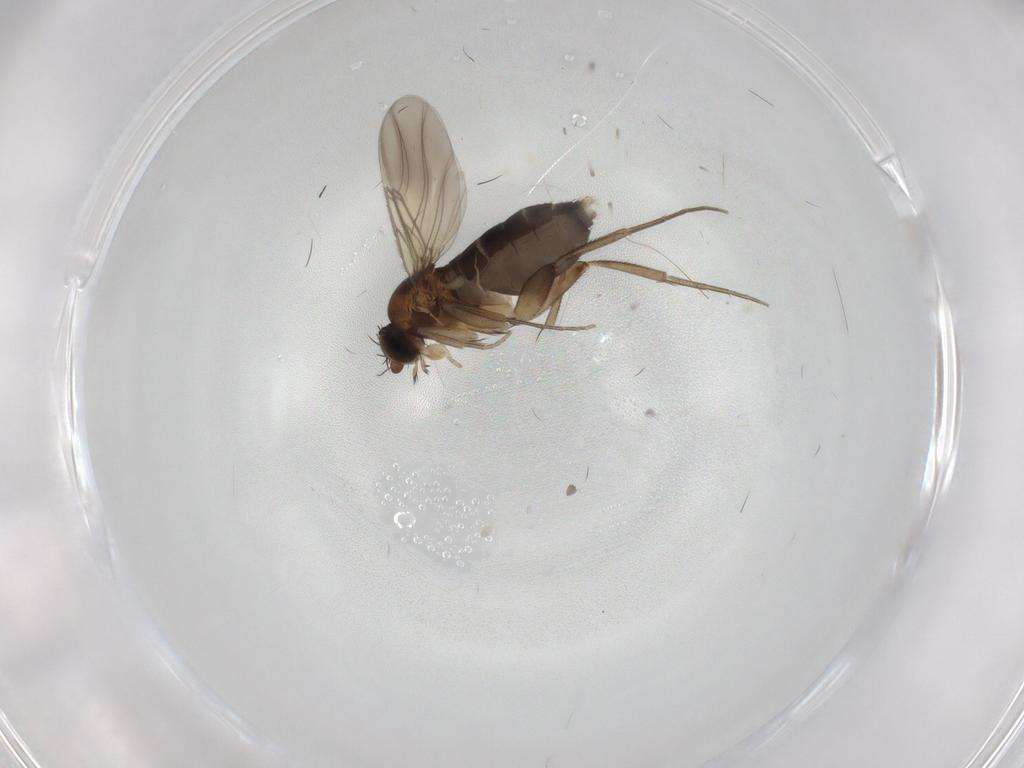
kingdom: Animalia
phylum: Arthropoda
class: Insecta
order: Diptera
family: Phoridae
